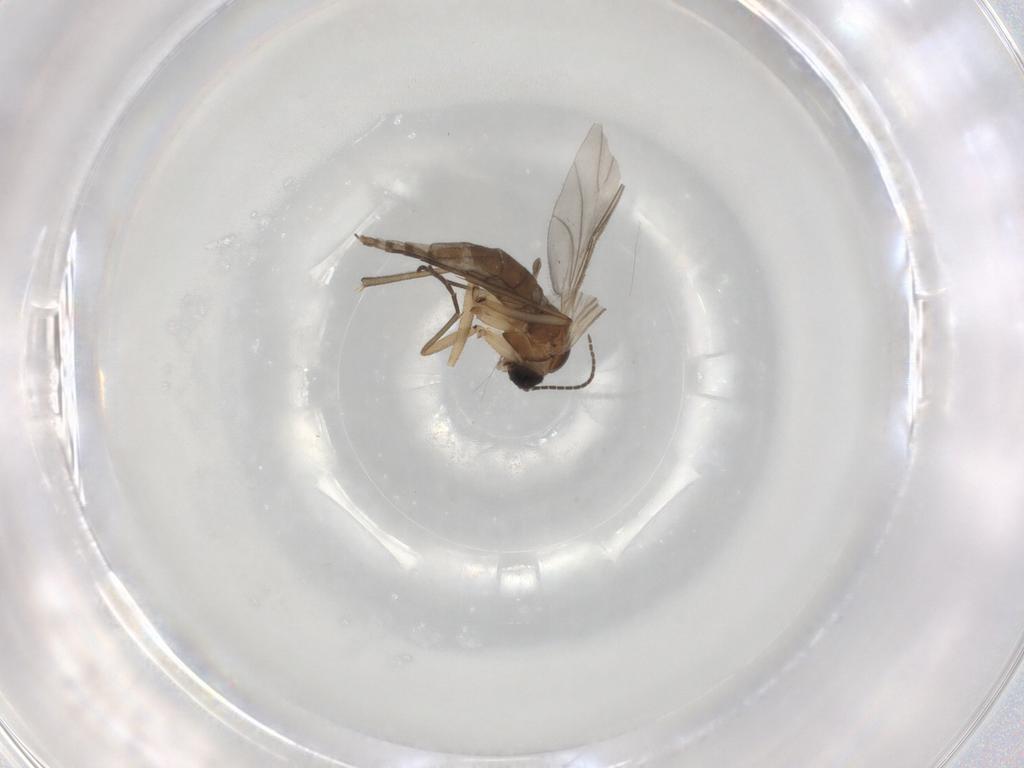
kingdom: Animalia
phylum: Arthropoda
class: Insecta
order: Diptera
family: Sciaridae
